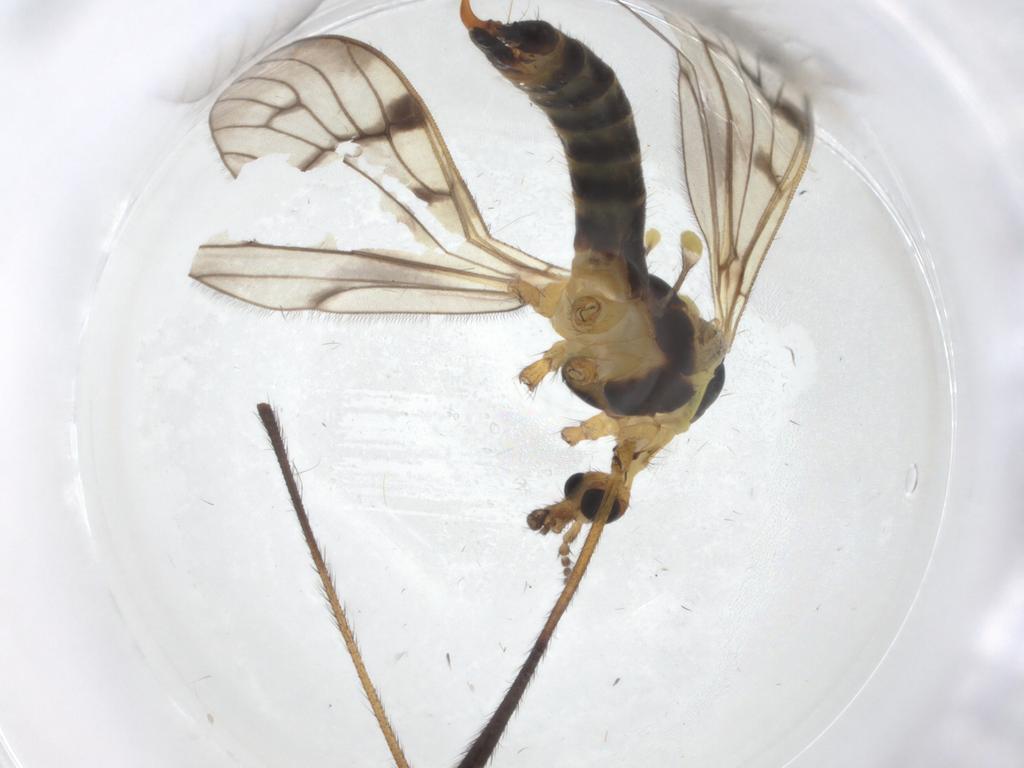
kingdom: Animalia
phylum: Arthropoda
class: Insecta
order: Diptera
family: Limoniidae
